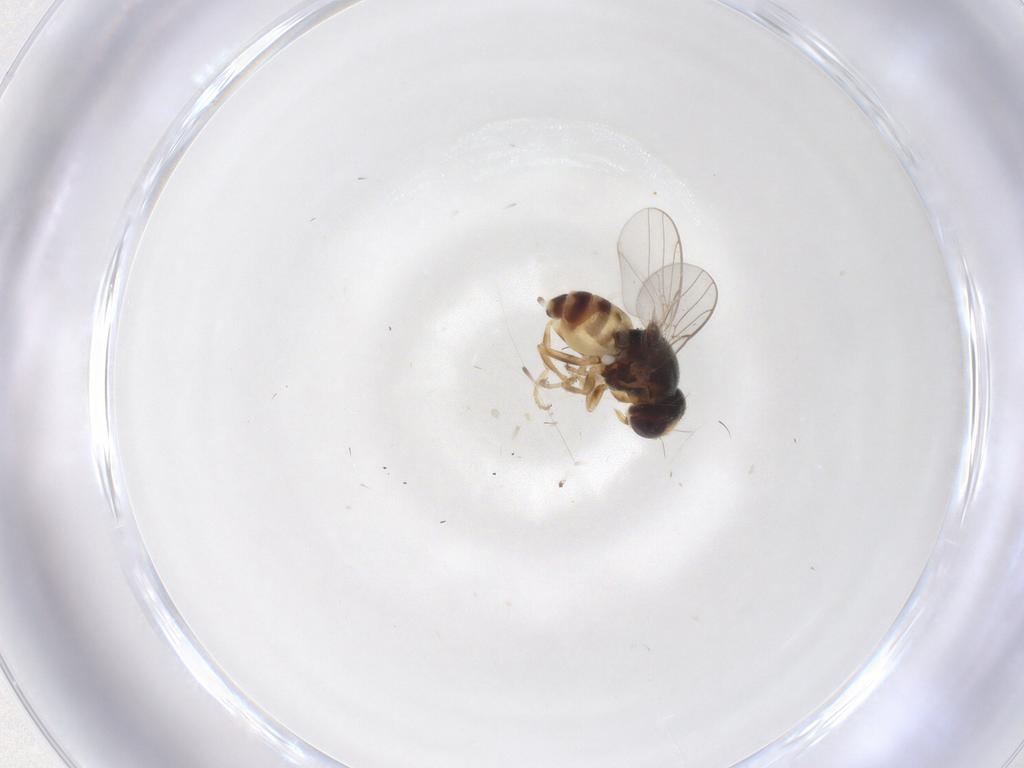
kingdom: Animalia
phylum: Arthropoda
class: Insecta
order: Diptera
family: Chloropidae
